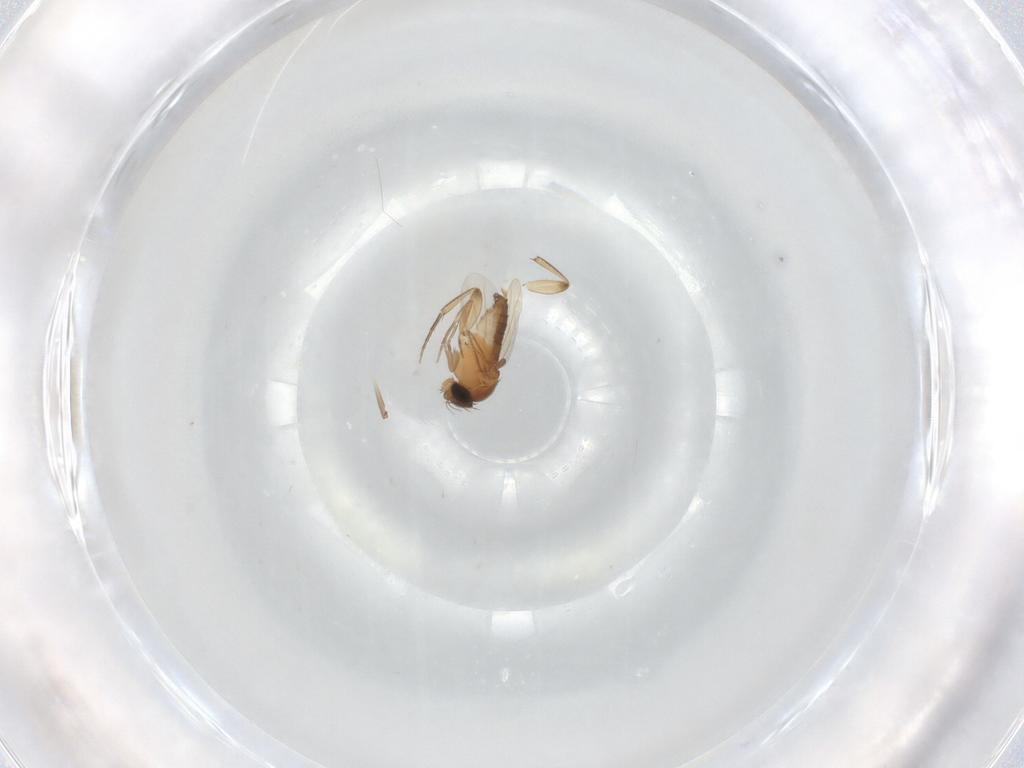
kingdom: Animalia
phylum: Arthropoda
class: Insecta
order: Diptera
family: Phoridae
